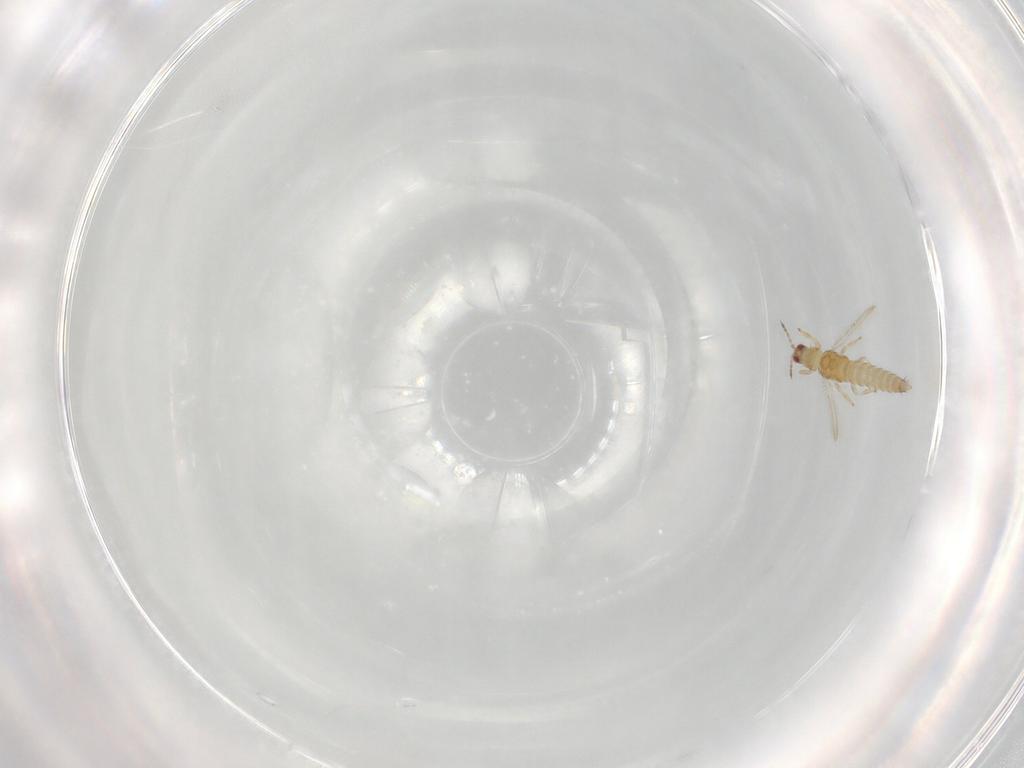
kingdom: Animalia
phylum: Arthropoda
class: Insecta
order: Thysanoptera
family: Thripidae
